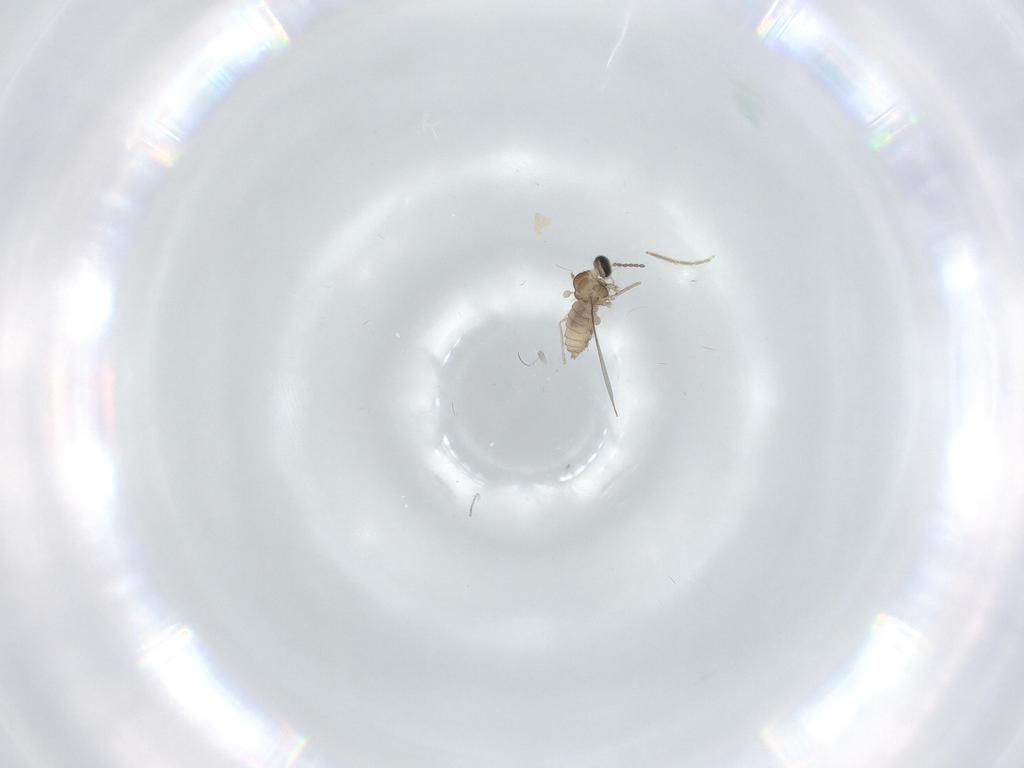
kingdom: Animalia
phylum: Arthropoda
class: Insecta
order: Diptera
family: Cecidomyiidae
